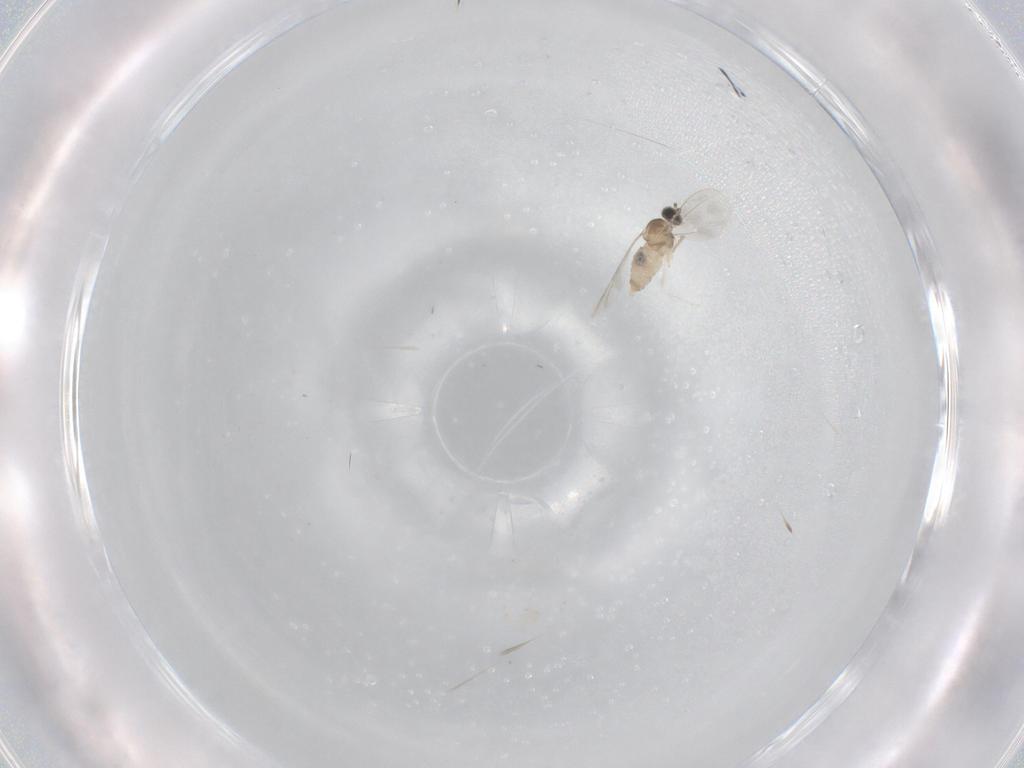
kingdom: Animalia
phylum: Arthropoda
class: Insecta
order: Diptera
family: Cecidomyiidae
